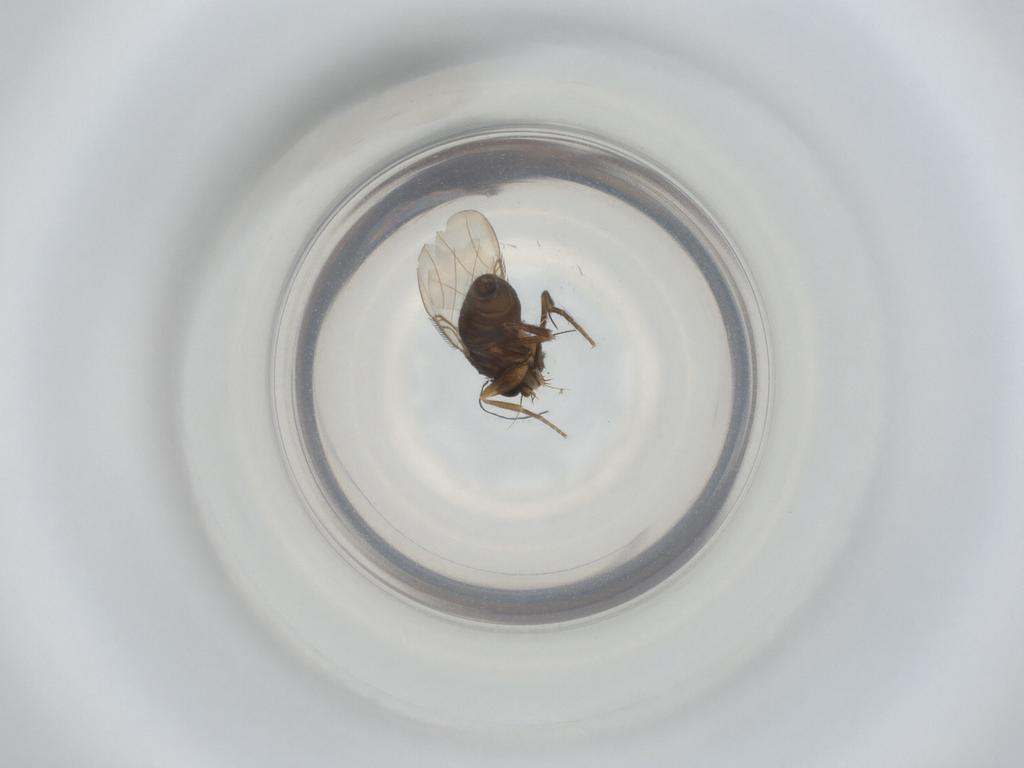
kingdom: Animalia
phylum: Arthropoda
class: Insecta
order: Diptera
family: Phoridae
